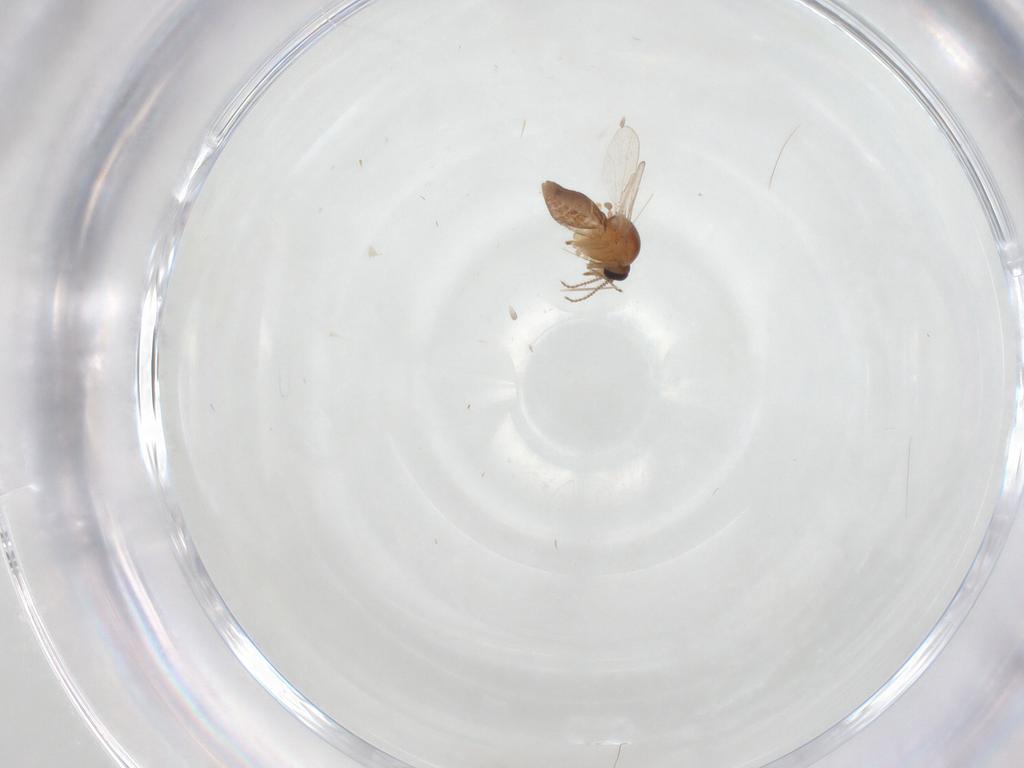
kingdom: Animalia
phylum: Arthropoda
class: Insecta
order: Diptera
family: Ceratopogonidae
